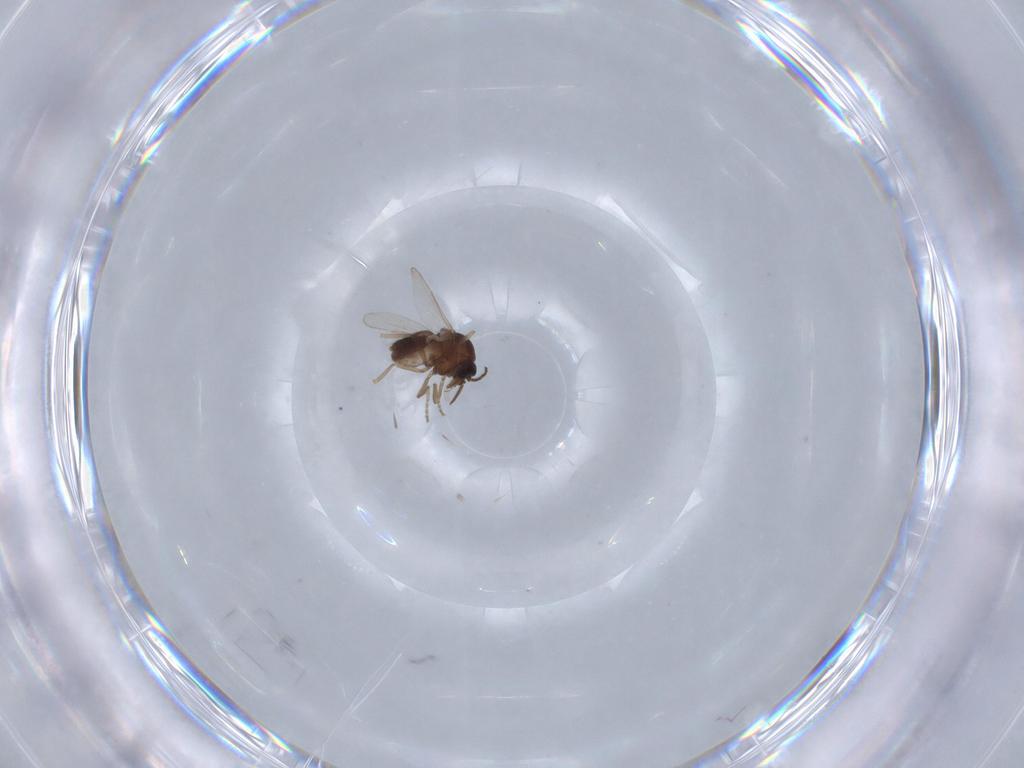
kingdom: Animalia
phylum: Arthropoda
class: Insecta
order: Diptera
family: Ceratopogonidae
